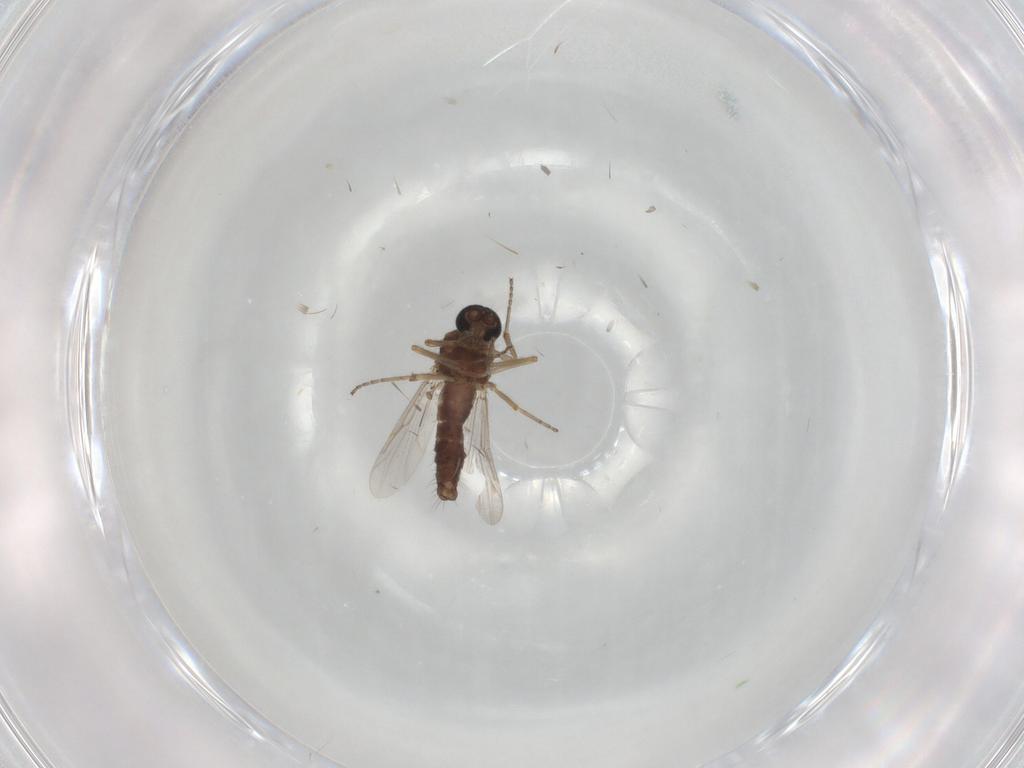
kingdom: Animalia
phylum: Arthropoda
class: Insecta
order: Diptera
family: Ceratopogonidae
